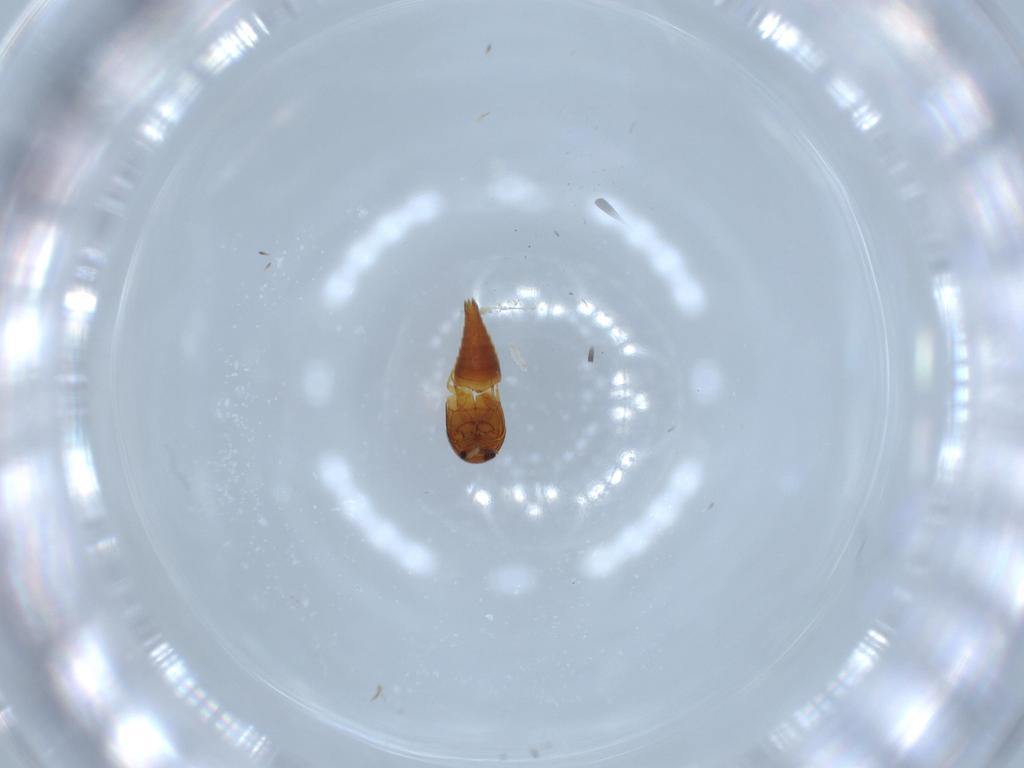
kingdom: Animalia
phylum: Arthropoda
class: Insecta
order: Coleoptera
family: Staphylinidae
